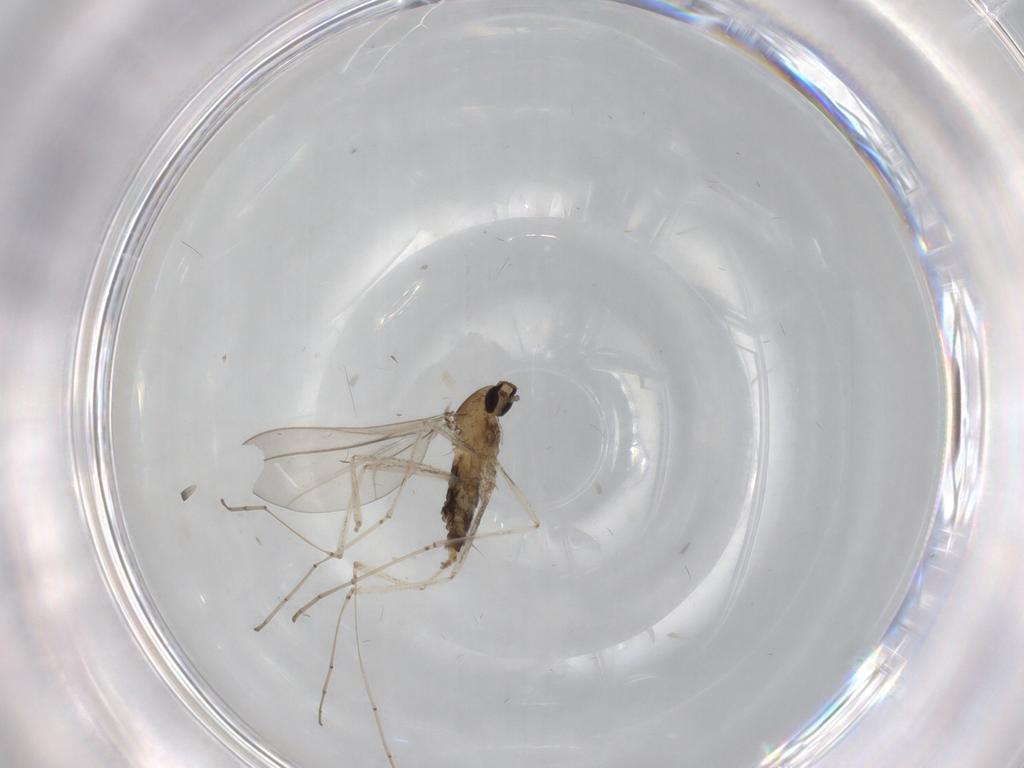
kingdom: Animalia
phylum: Arthropoda
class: Insecta
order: Diptera
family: Cecidomyiidae
